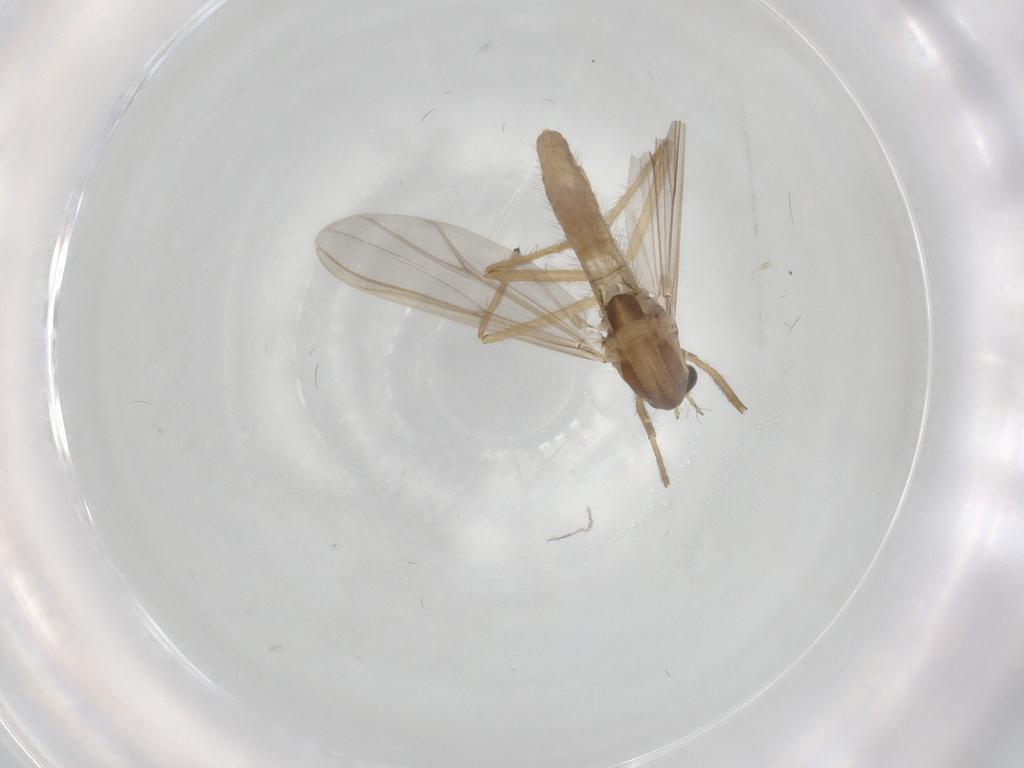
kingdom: Animalia
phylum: Arthropoda
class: Insecta
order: Diptera
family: Chironomidae
